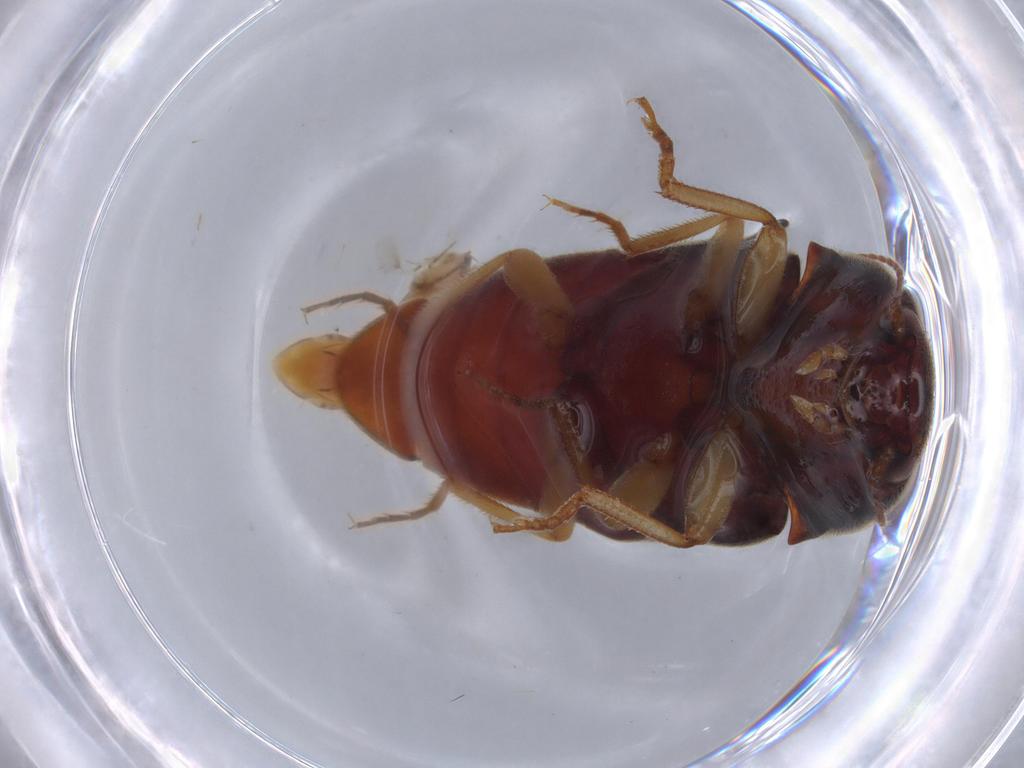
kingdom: Animalia
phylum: Arthropoda
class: Insecta
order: Coleoptera
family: Elateridae
